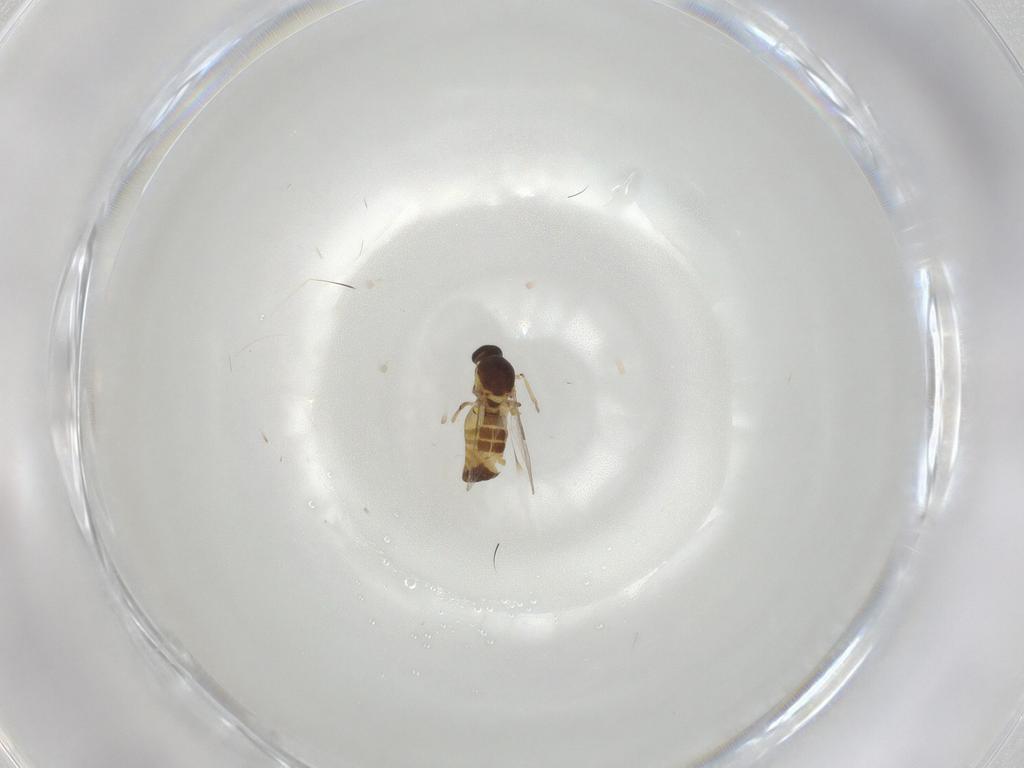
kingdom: Animalia
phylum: Arthropoda
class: Insecta
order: Diptera
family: Ceratopogonidae
